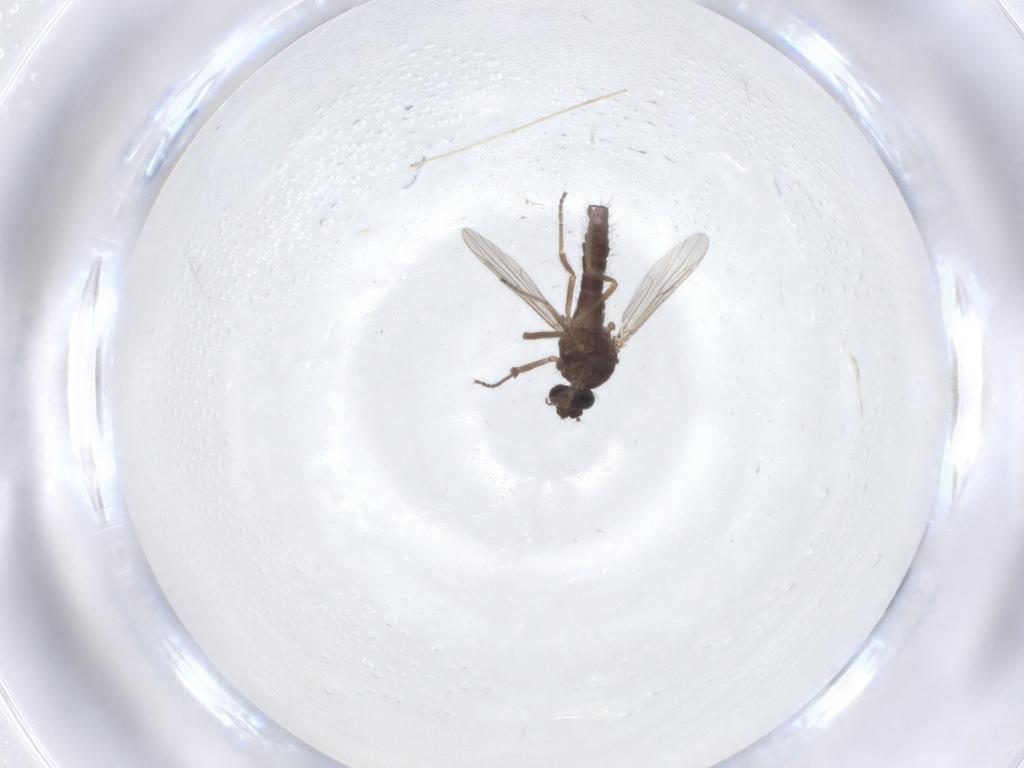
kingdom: Animalia
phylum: Arthropoda
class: Insecta
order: Diptera
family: Ceratopogonidae
